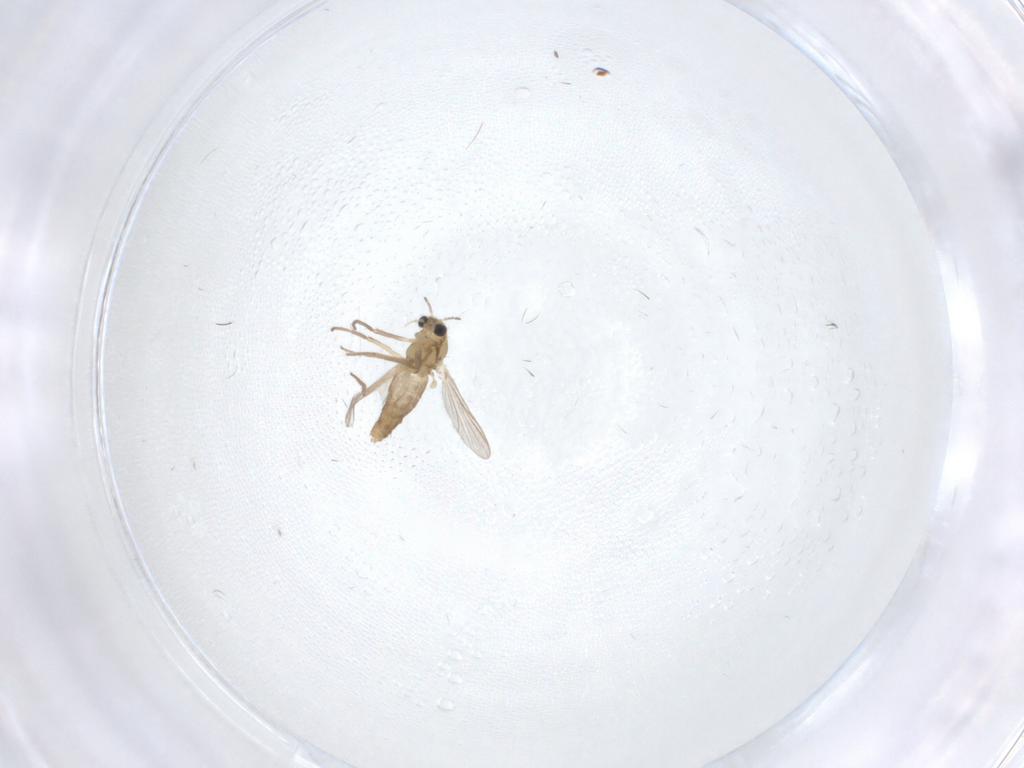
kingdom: Animalia
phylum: Arthropoda
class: Insecta
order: Diptera
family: Chironomidae
